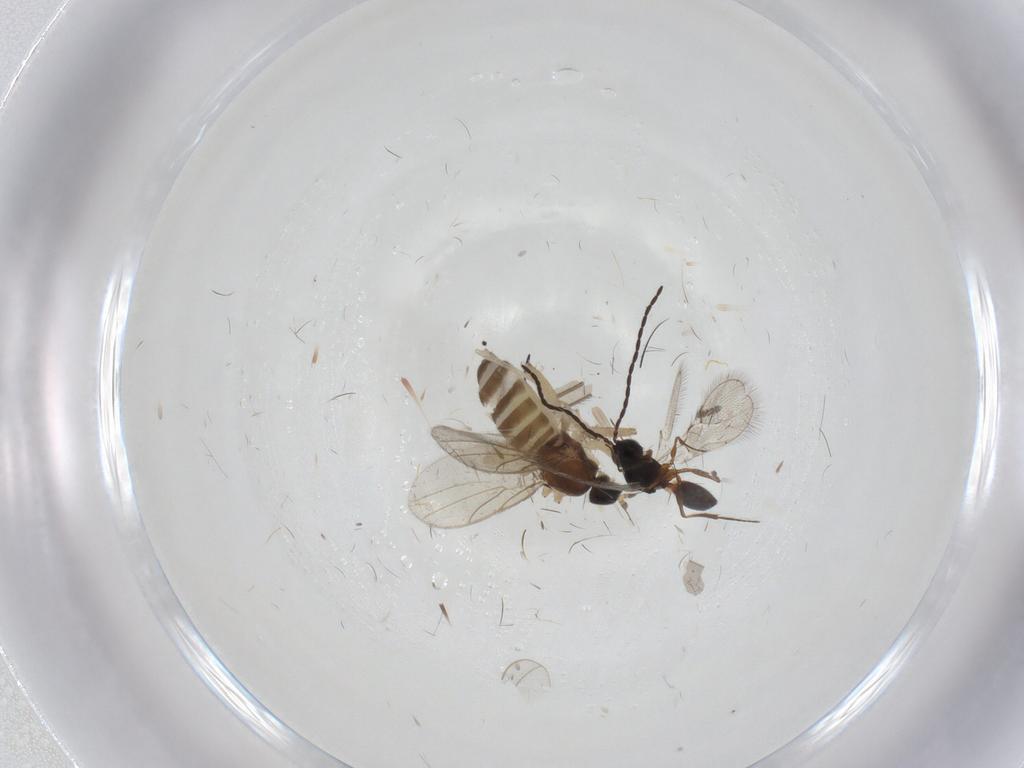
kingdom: Animalia
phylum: Arthropoda
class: Insecta
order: Diptera
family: Hybotidae
